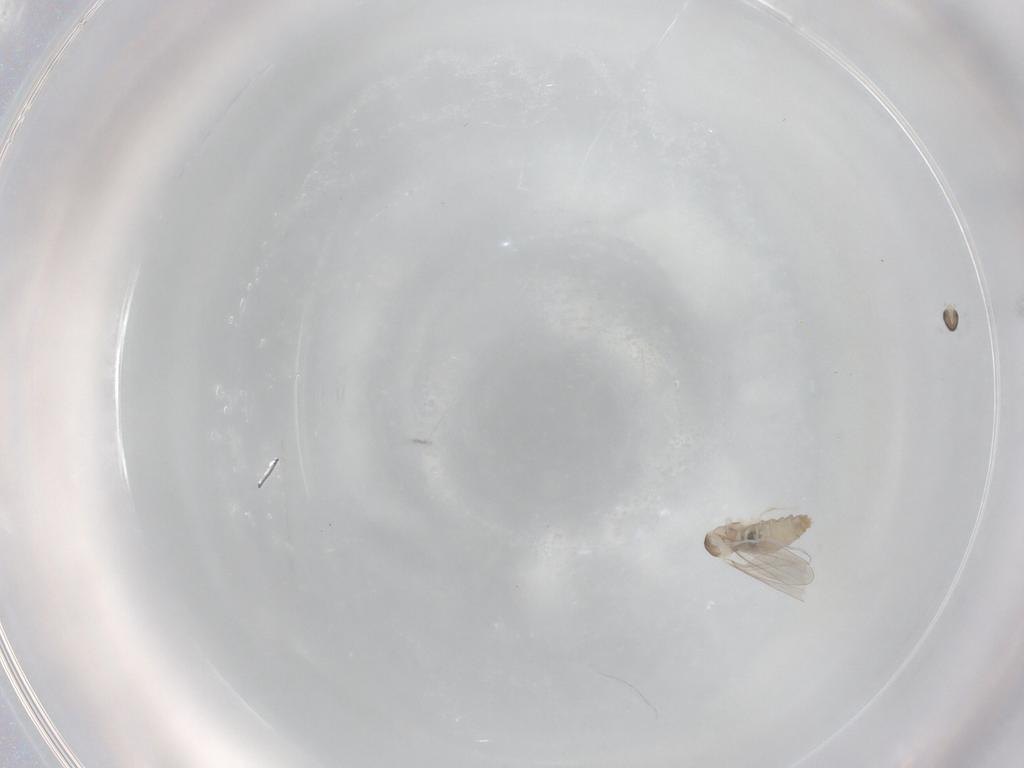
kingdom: Animalia
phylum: Arthropoda
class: Insecta
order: Diptera
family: Cecidomyiidae
